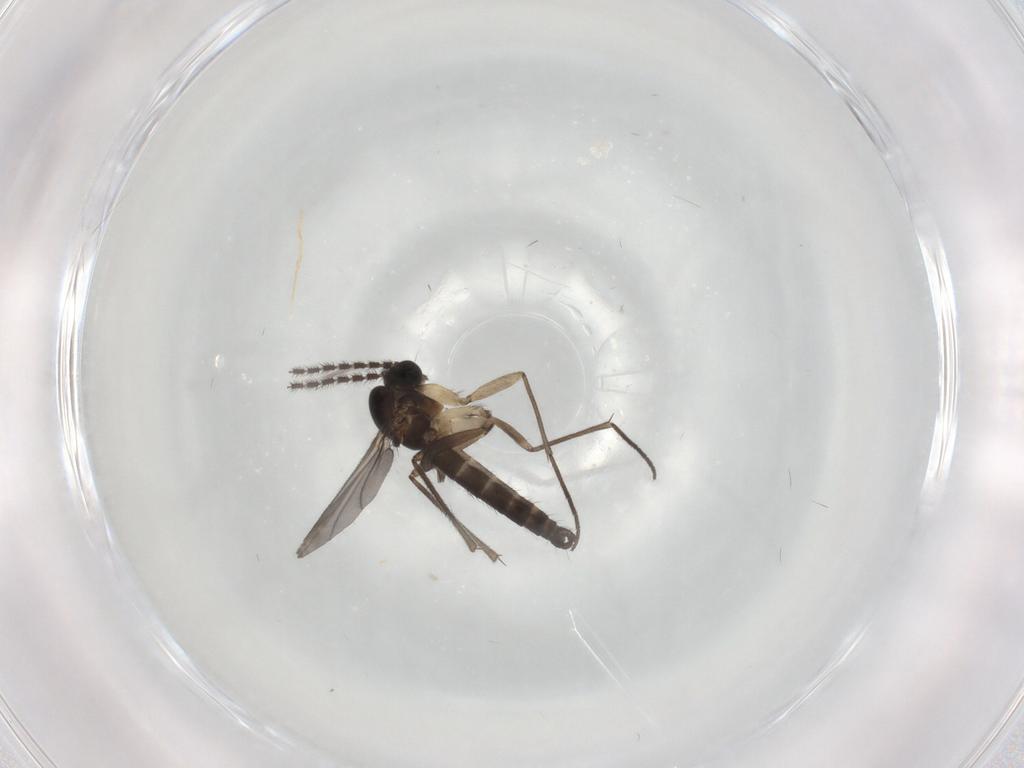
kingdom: Animalia
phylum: Arthropoda
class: Insecta
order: Diptera
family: Sciaridae
